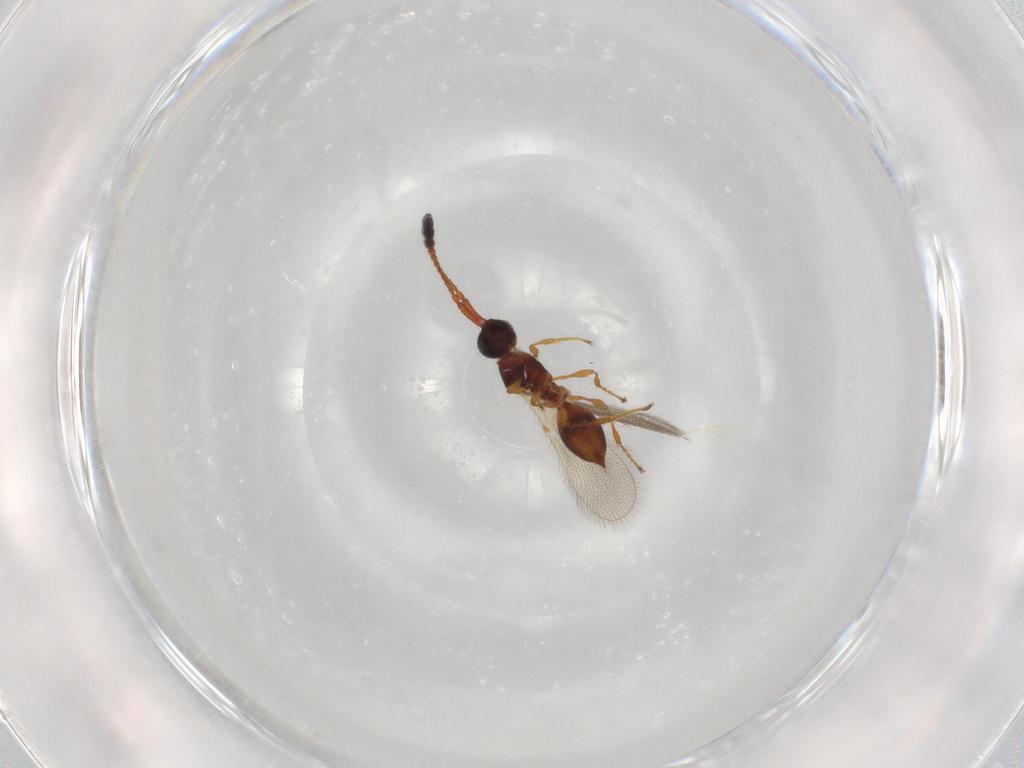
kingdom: Animalia
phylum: Arthropoda
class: Insecta
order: Hymenoptera
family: Diapriidae
